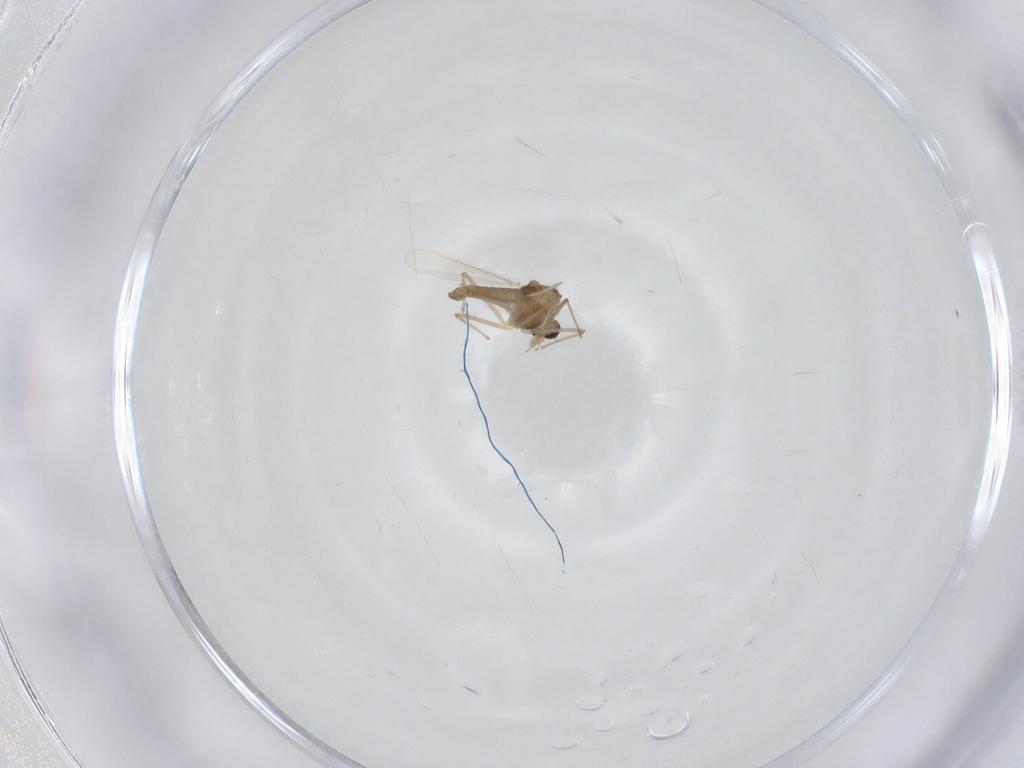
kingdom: Animalia
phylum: Arthropoda
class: Insecta
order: Diptera
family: Chironomidae
